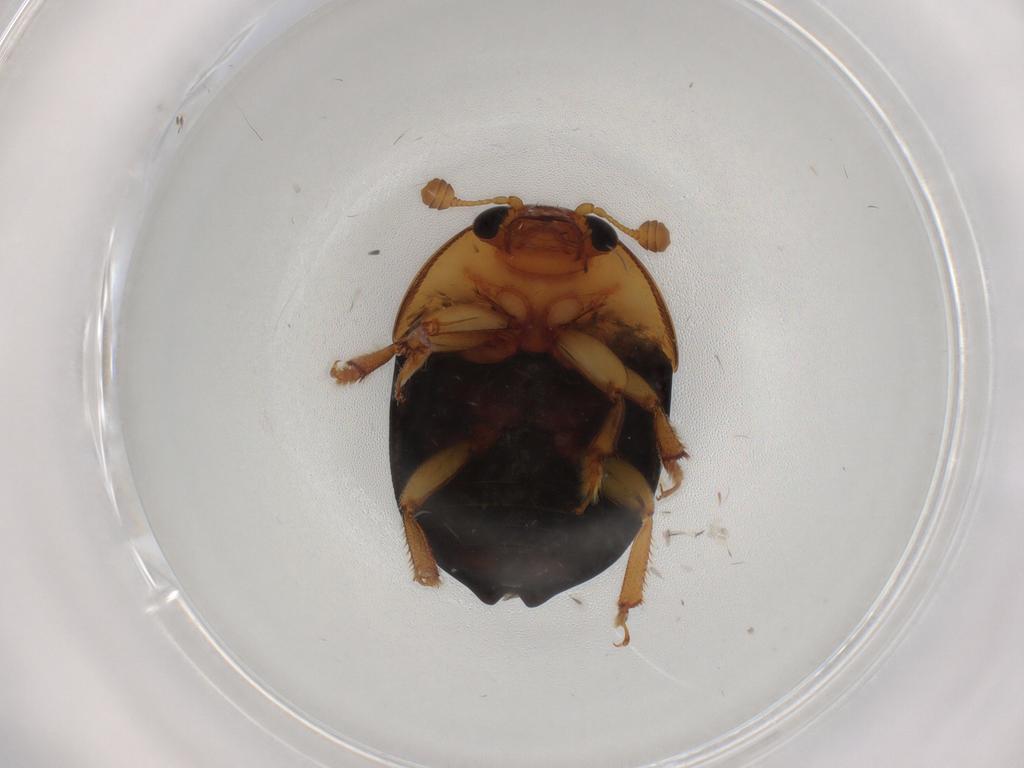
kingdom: Animalia
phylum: Arthropoda
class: Insecta
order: Coleoptera
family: Nitidulidae
